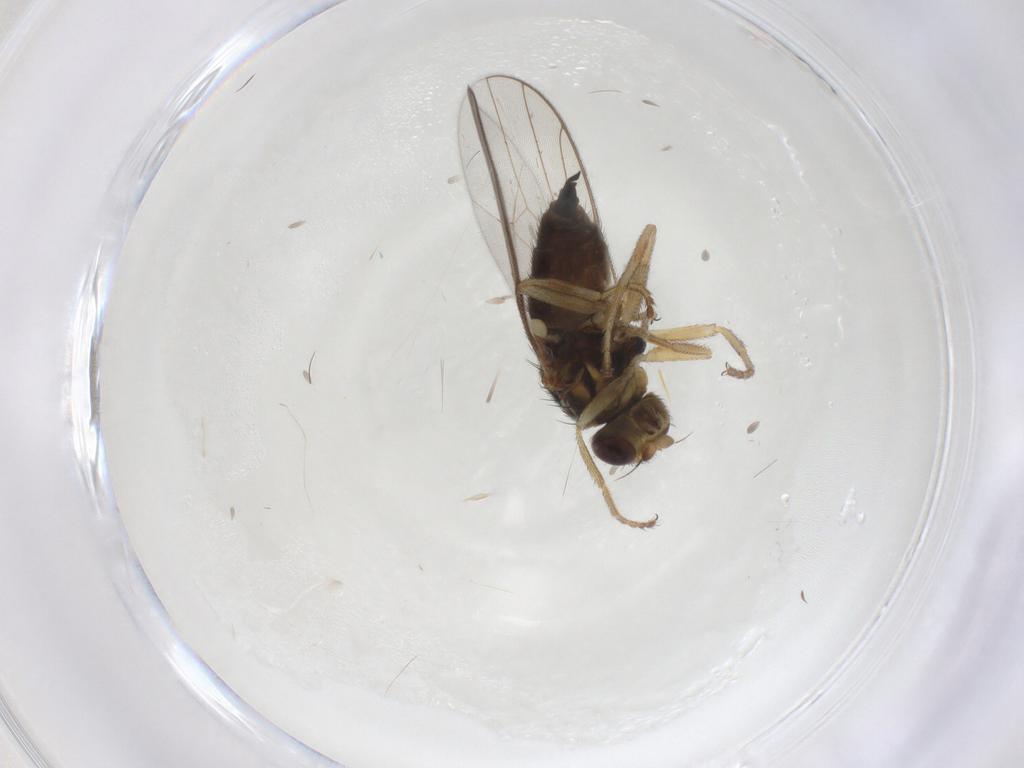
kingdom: Animalia
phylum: Arthropoda
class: Insecta
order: Diptera
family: Chloropidae
